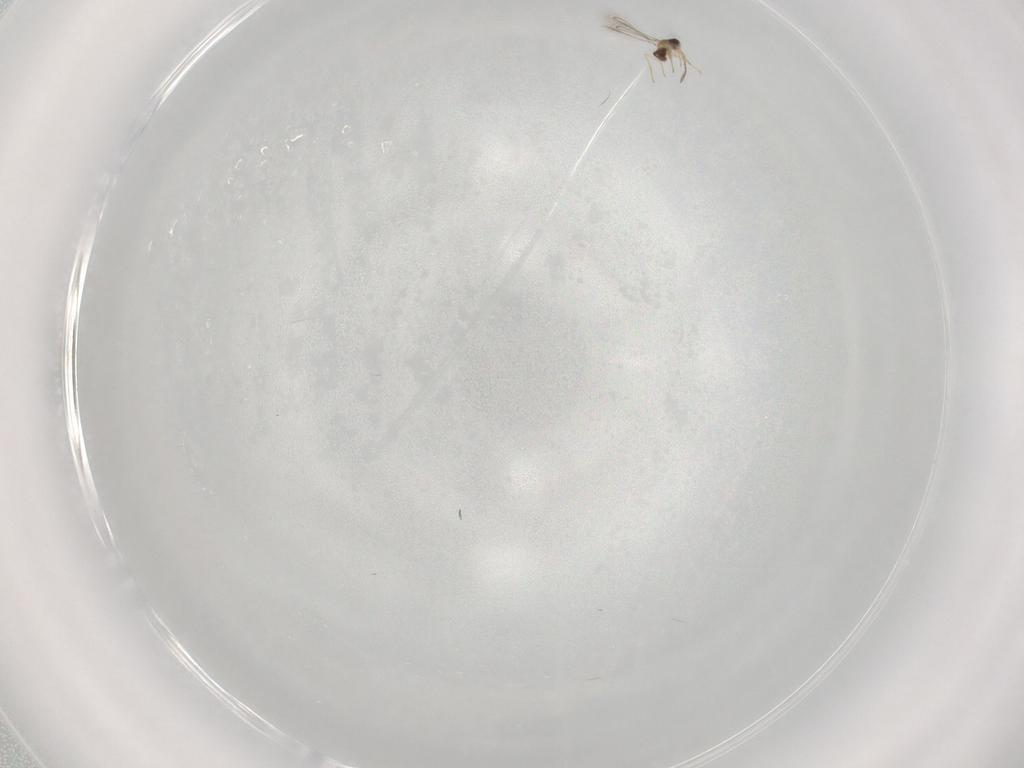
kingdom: Animalia
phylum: Arthropoda
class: Insecta
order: Hymenoptera
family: Mymaridae
